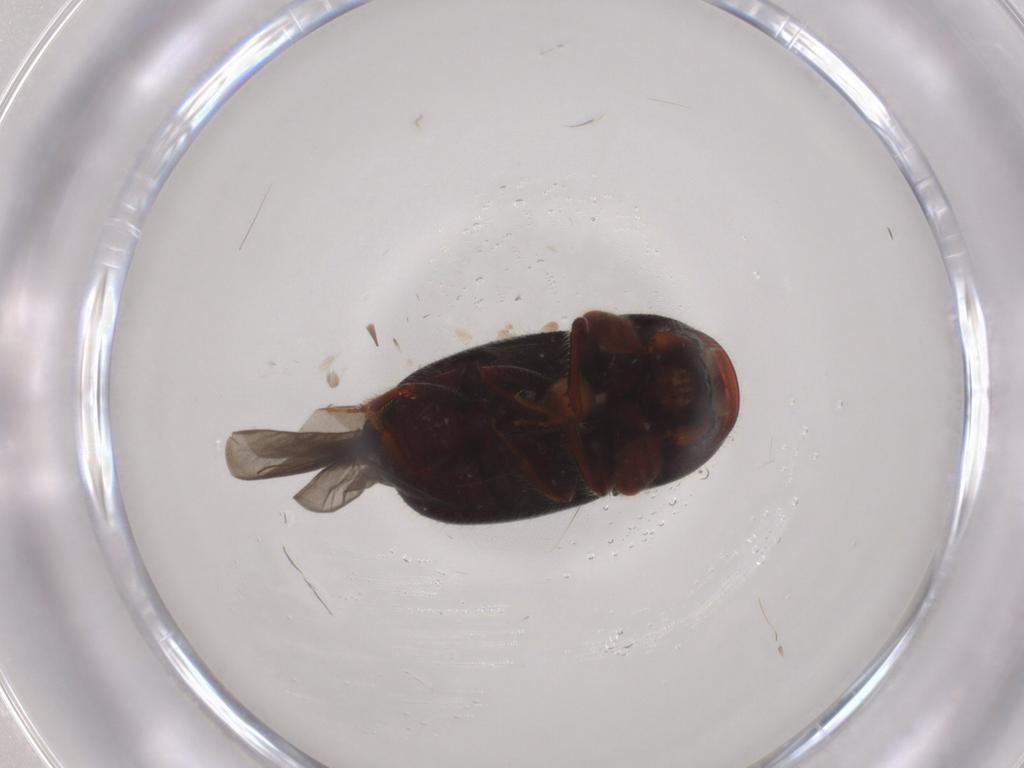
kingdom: Animalia
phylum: Arthropoda
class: Insecta
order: Coleoptera
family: Curculionidae
